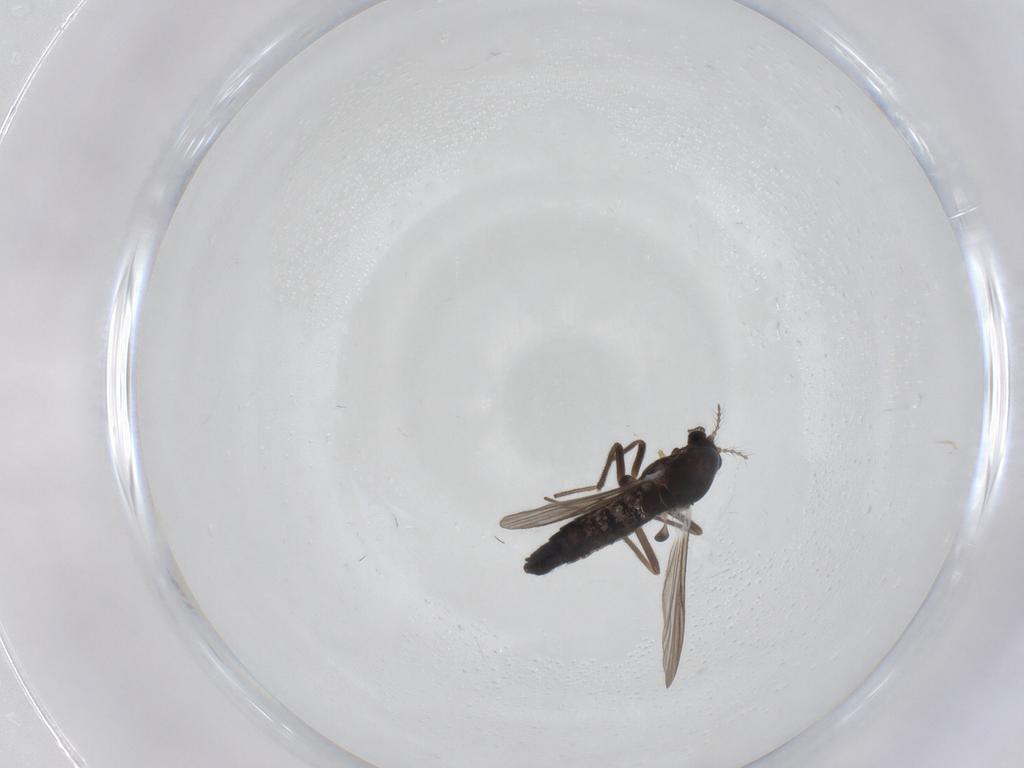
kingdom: Animalia
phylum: Arthropoda
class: Insecta
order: Diptera
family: Chironomidae
